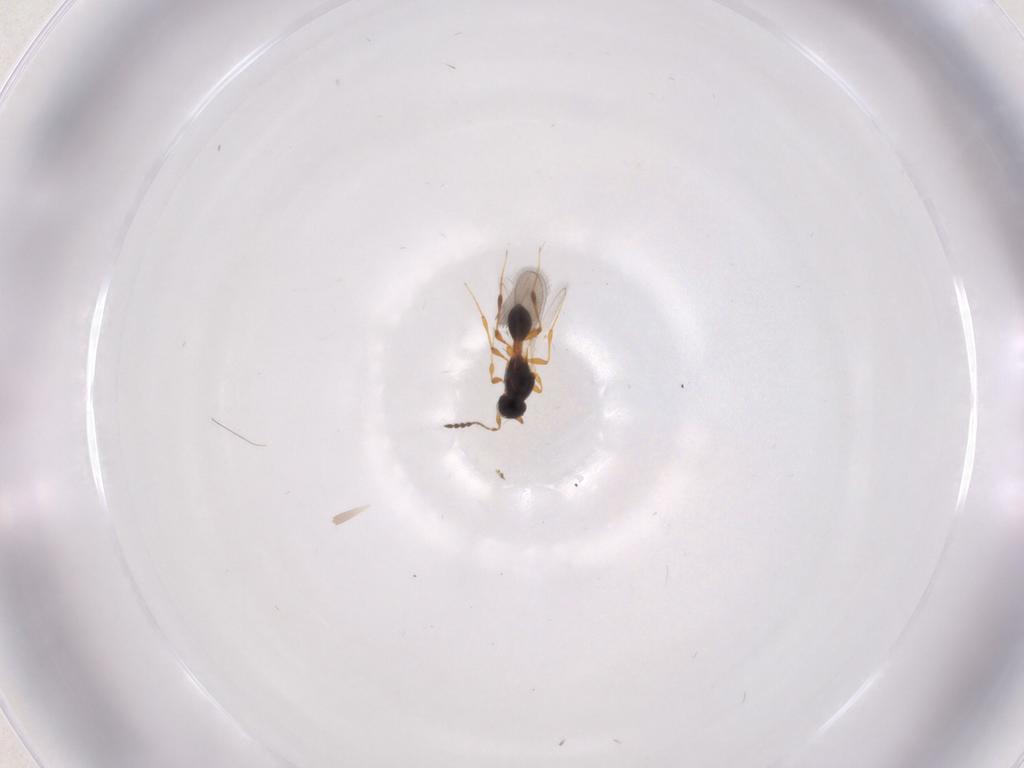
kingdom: Animalia
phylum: Arthropoda
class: Insecta
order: Hymenoptera
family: Platygastridae
